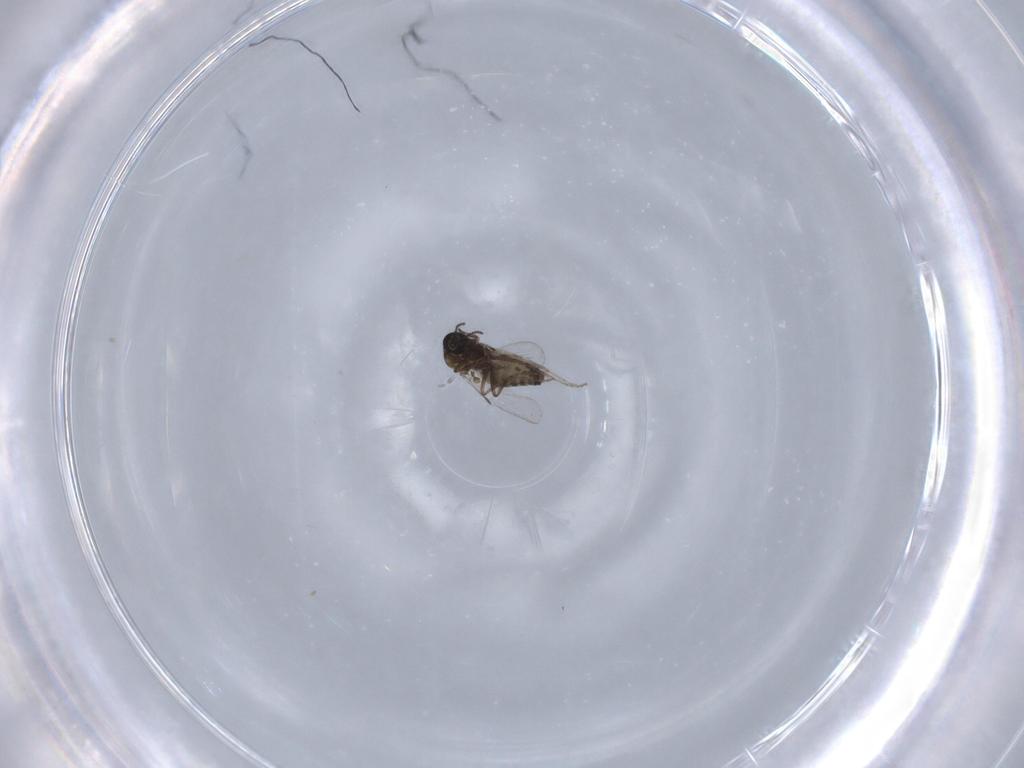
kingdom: Animalia
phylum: Arthropoda
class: Insecta
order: Diptera
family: Ceratopogonidae
